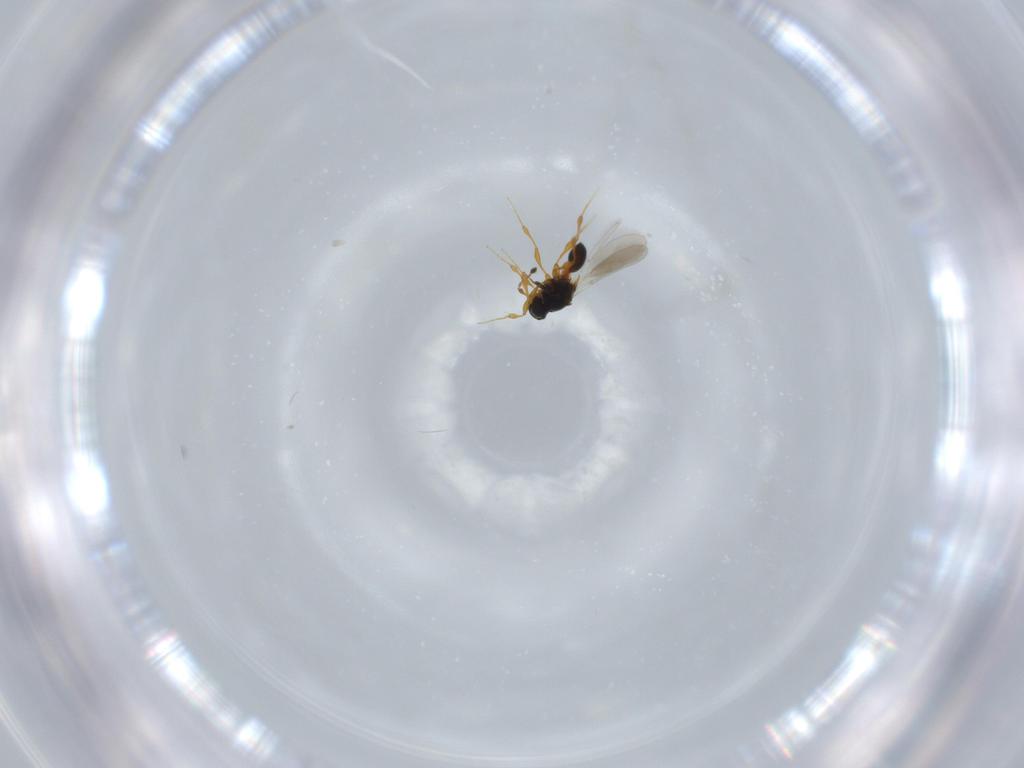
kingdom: Animalia
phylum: Arthropoda
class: Insecta
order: Hymenoptera
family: Platygastridae
